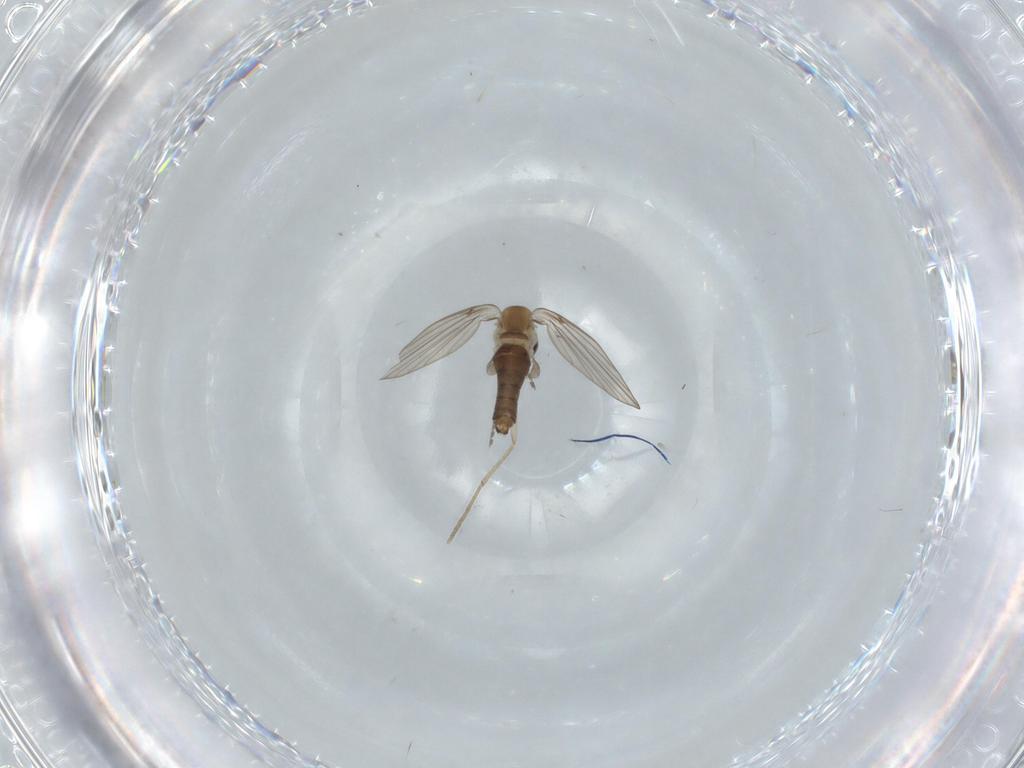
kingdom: Animalia
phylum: Arthropoda
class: Insecta
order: Diptera
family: Psychodidae
